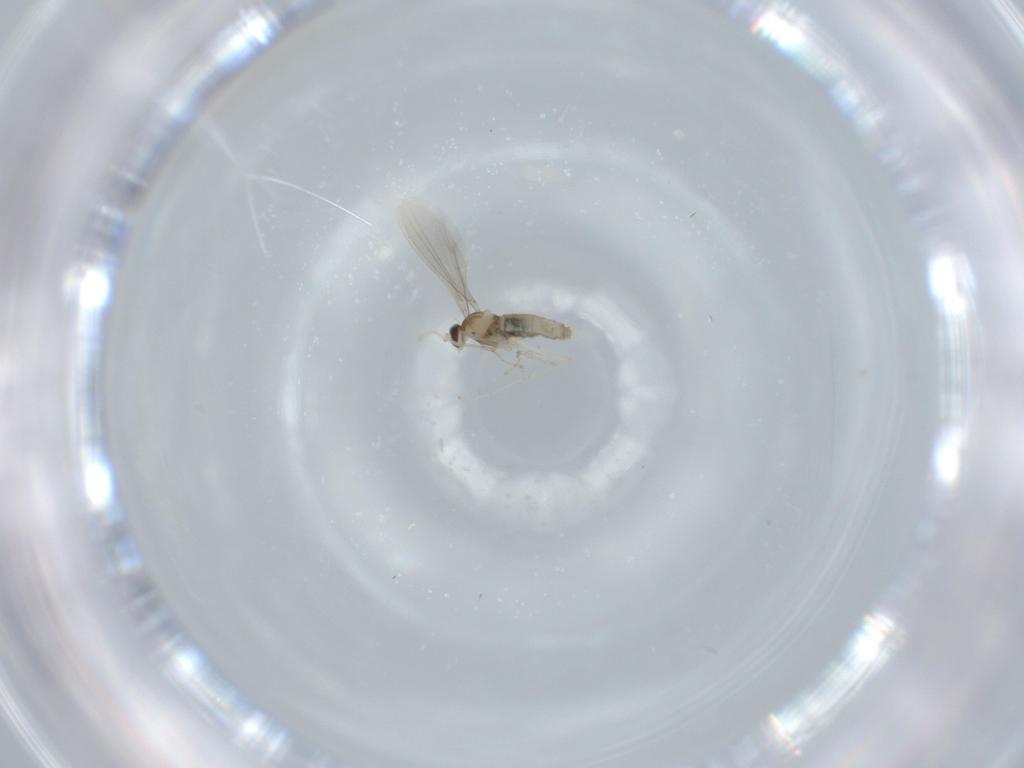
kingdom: Animalia
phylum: Arthropoda
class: Insecta
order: Diptera
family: Cecidomyiidae
